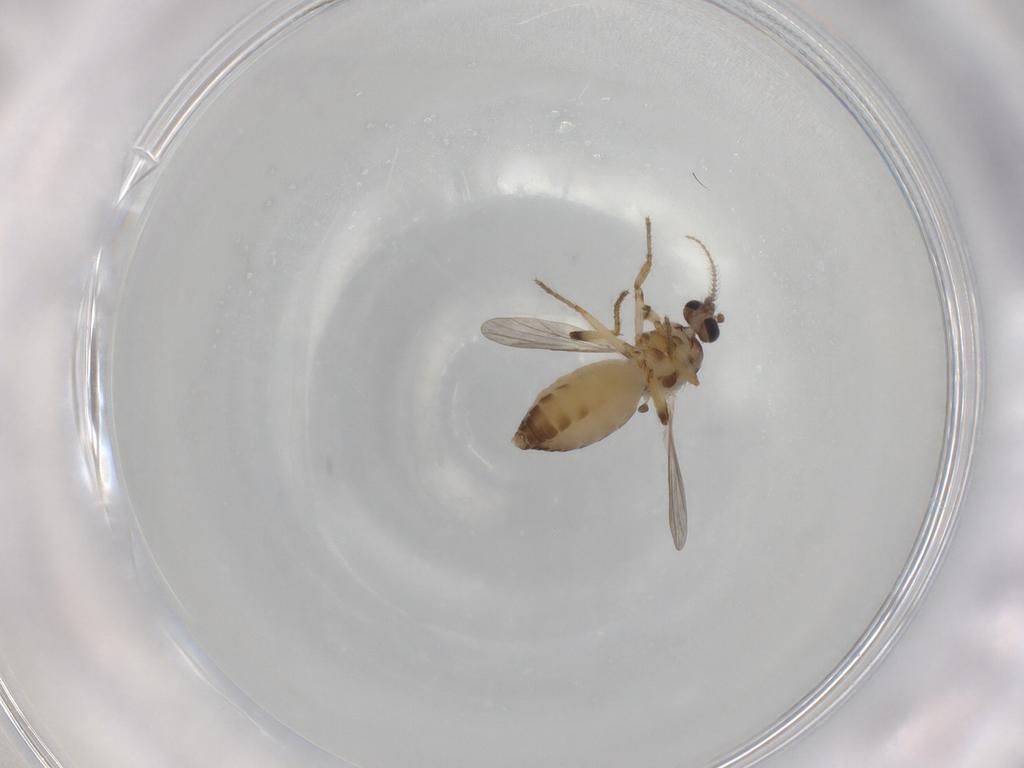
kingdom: Animalia
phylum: Arthropoda
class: Insecta
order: Diptera
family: Ceratopogonidae
